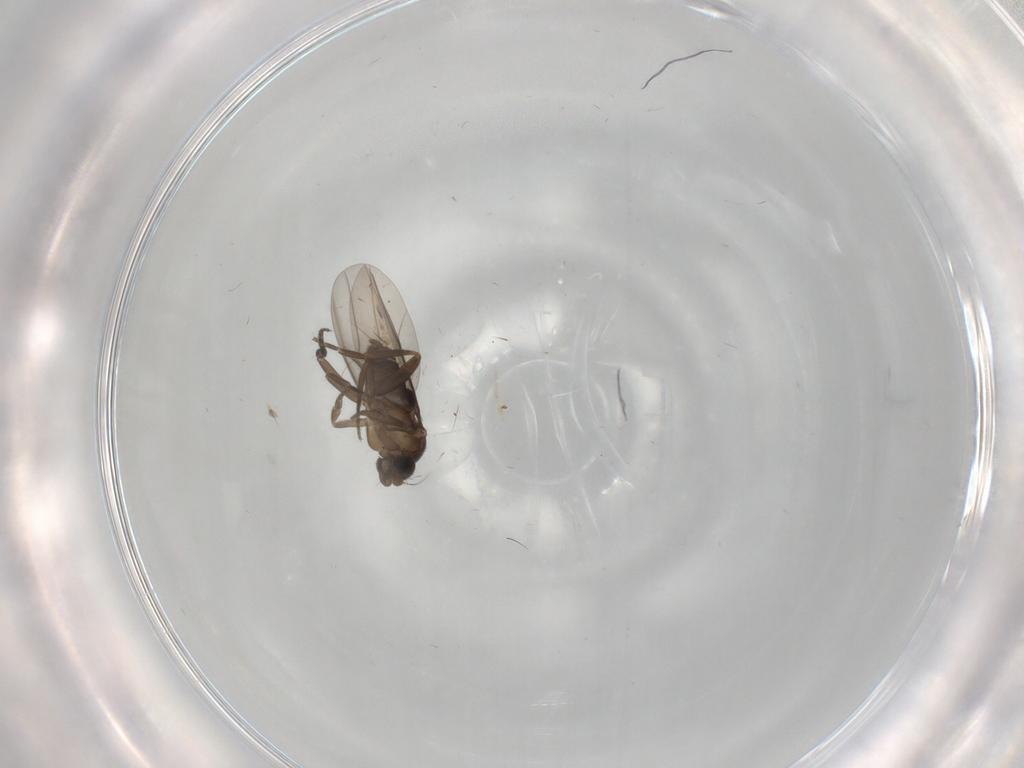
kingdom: Animalia
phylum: Arthropoda
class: Insecta
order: Diptera
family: Phoridae
